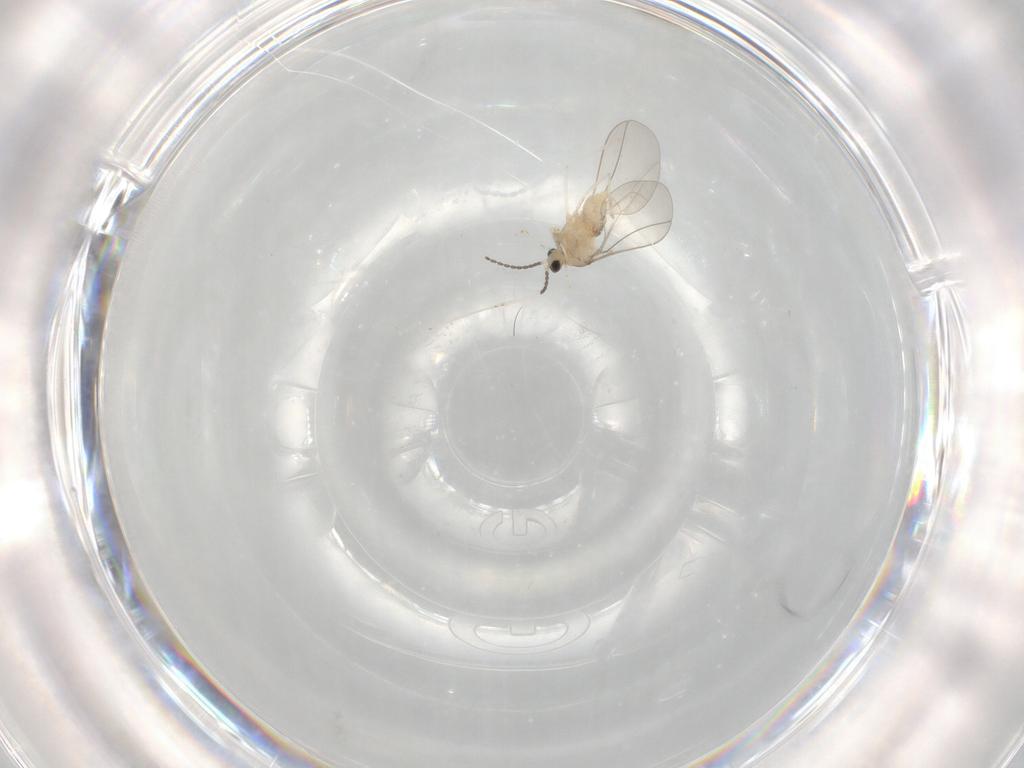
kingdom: Animalia
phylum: Arthropoda
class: Insecta
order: Diptera
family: Cecidomyiidae
